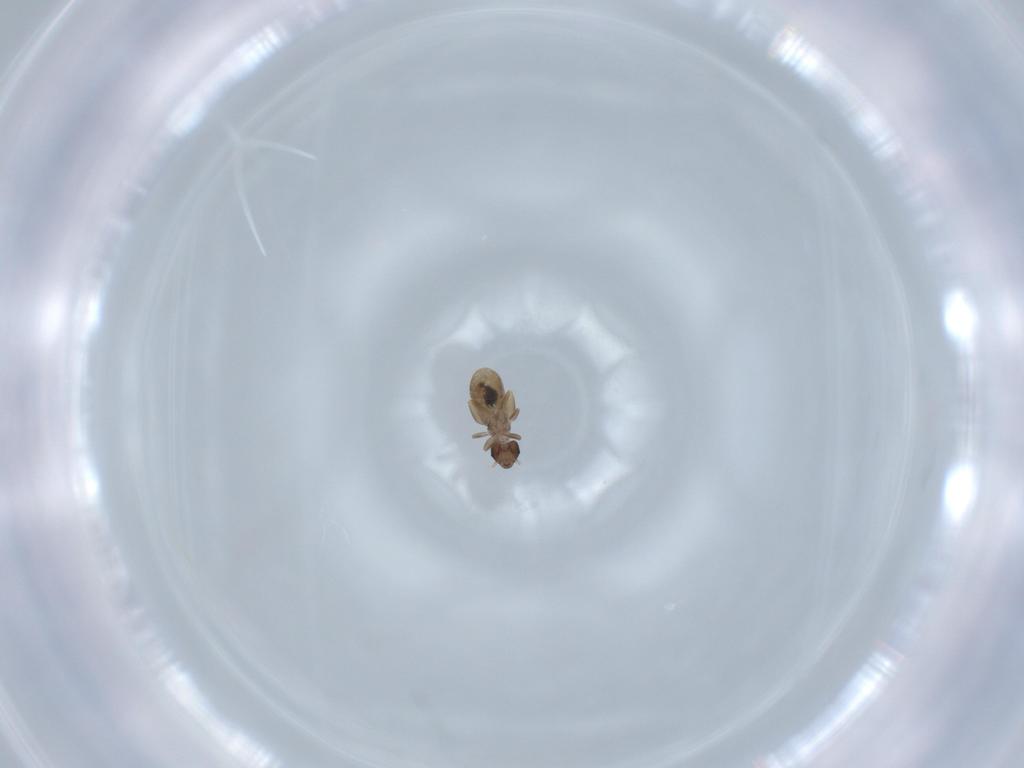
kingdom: Animalia
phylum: Arthropoda
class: Insecta
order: Psocodea
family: Liposcelididae
